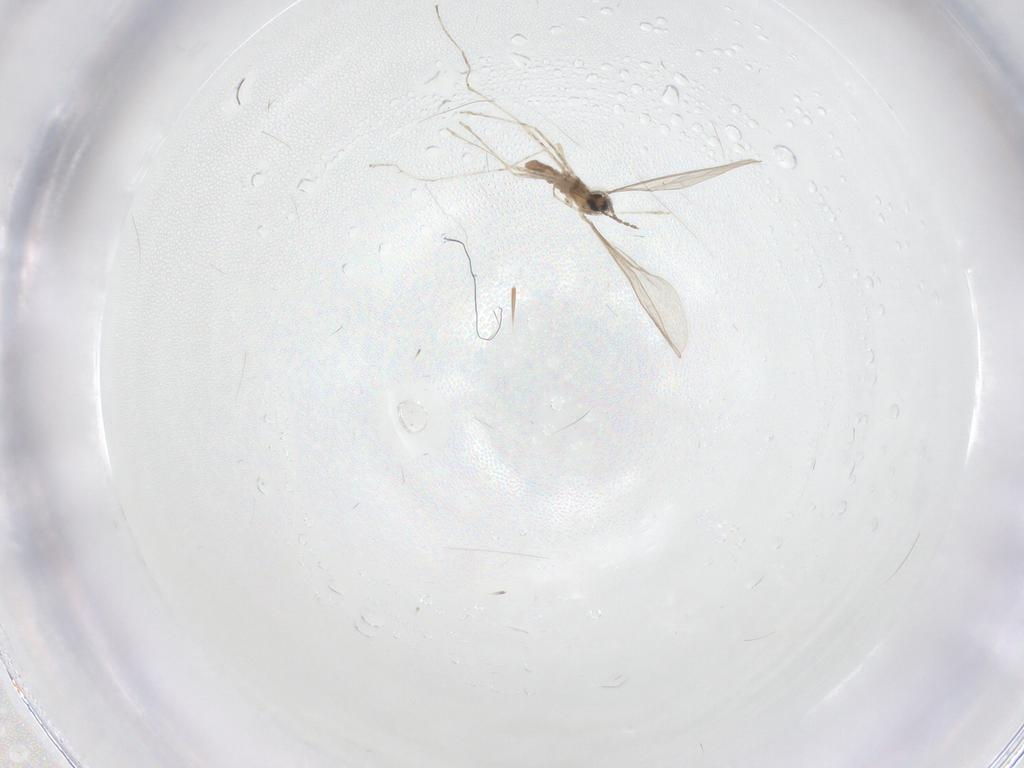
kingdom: Animalia
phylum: Arthropoda
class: Insecta
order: Diptera
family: Cecidomyiidae
